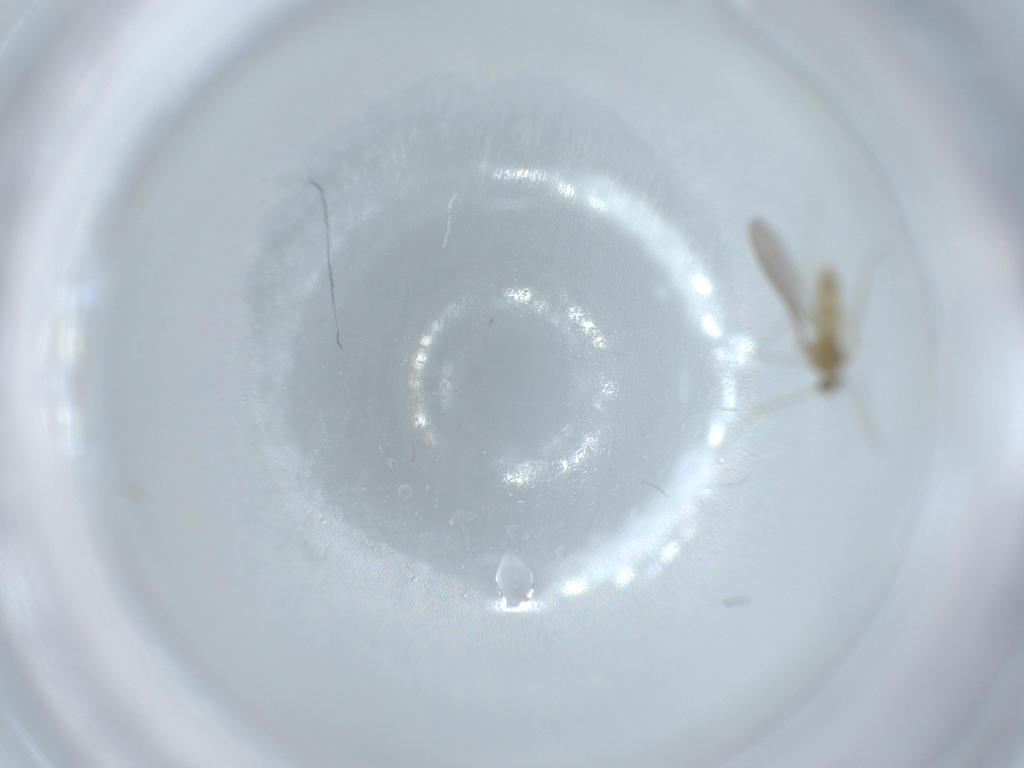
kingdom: Animalia
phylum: Arthropoda
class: Insecta
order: Diptera
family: Cecidomyiidae
